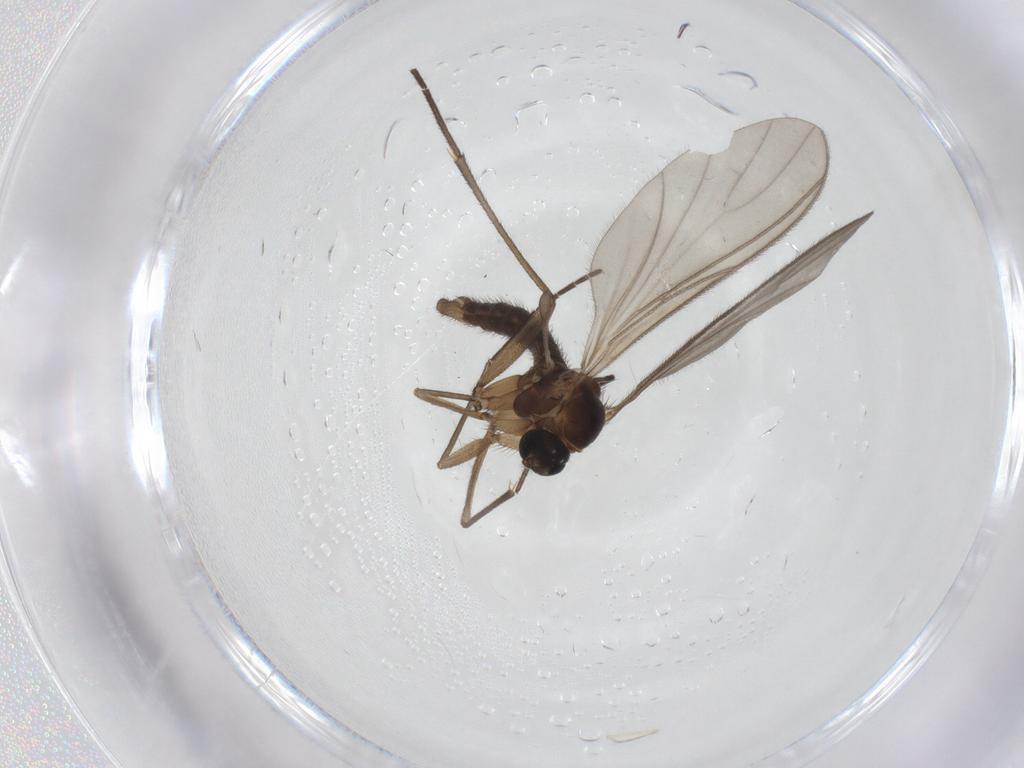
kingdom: Animalia
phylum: Arthropoda
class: Insecta
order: Diptera
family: Sciaridae
